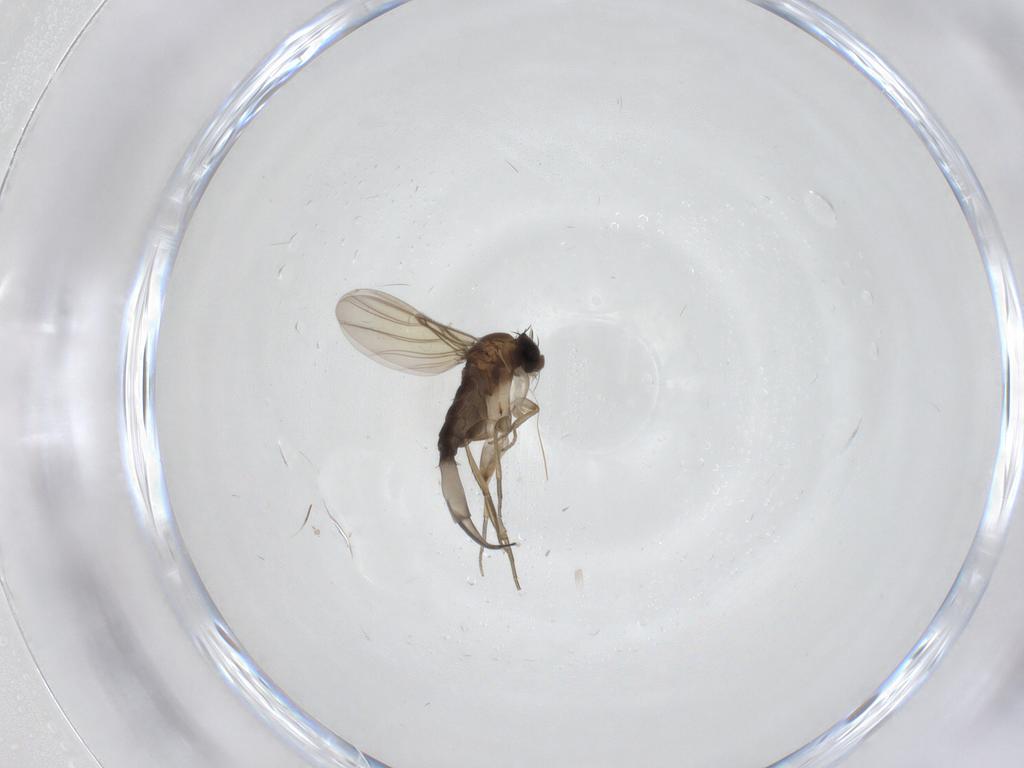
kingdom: Animalia
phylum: Arthropoda
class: Insecta
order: Diptera
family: Phoridae
